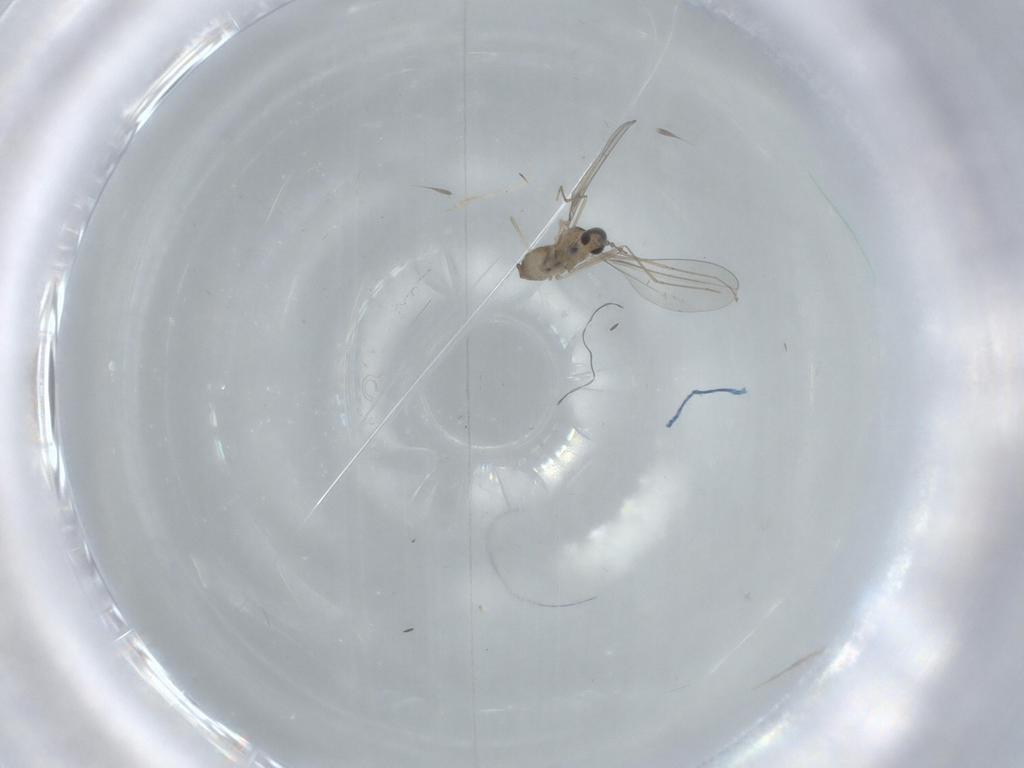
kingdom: Animalia
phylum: Arthropoda
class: Insecta
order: Diptera
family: Cecidomyiidae
